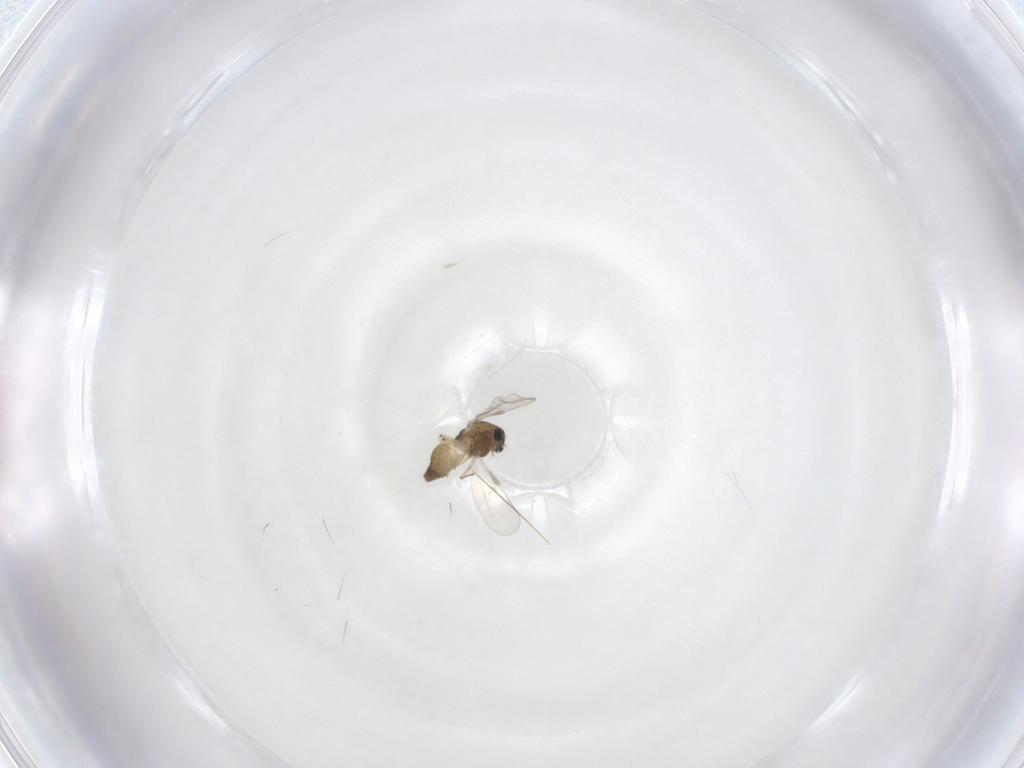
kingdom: Animalia
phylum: Arthropoda
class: Insecta
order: Diptera
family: Chironomidae
